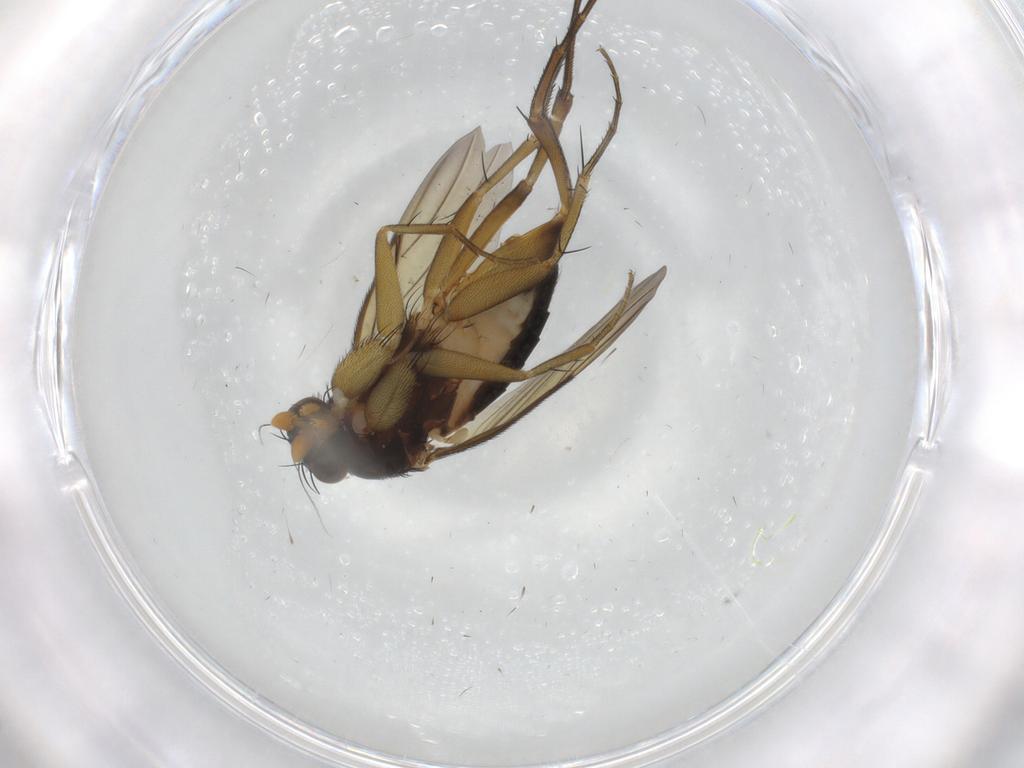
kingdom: Animalia
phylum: Arthropoda
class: Insecta
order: Diptera
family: Phoridae
